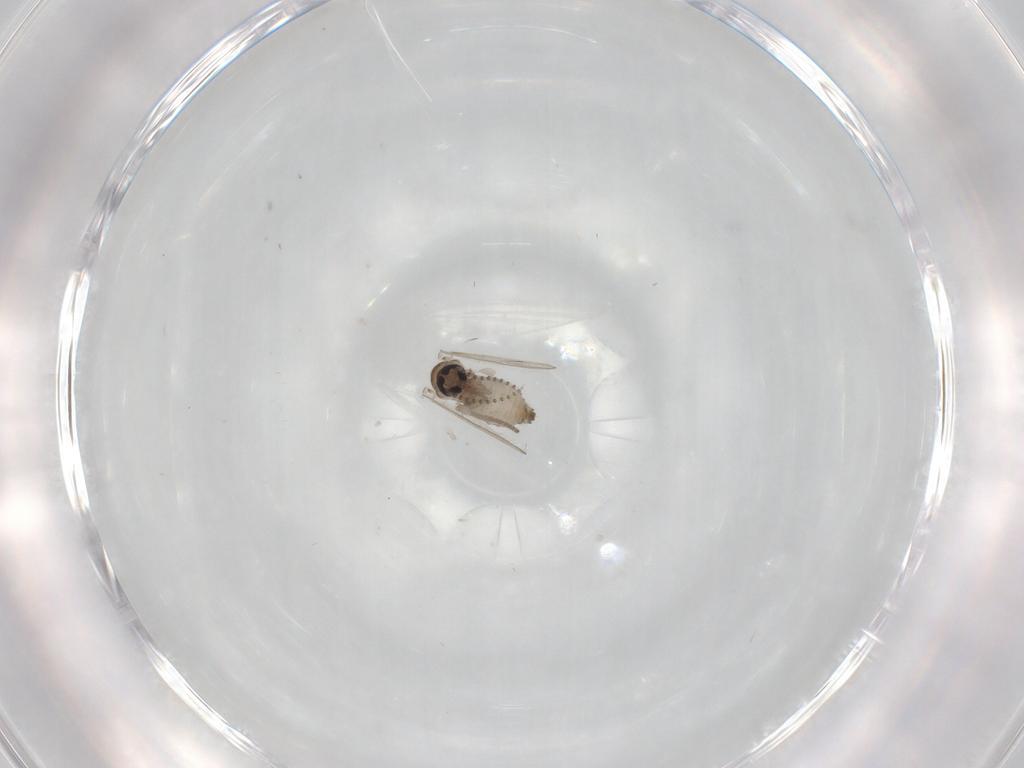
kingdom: Animalia
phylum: Arthropoda
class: Insecta
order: Diptera
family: Psychodidae
